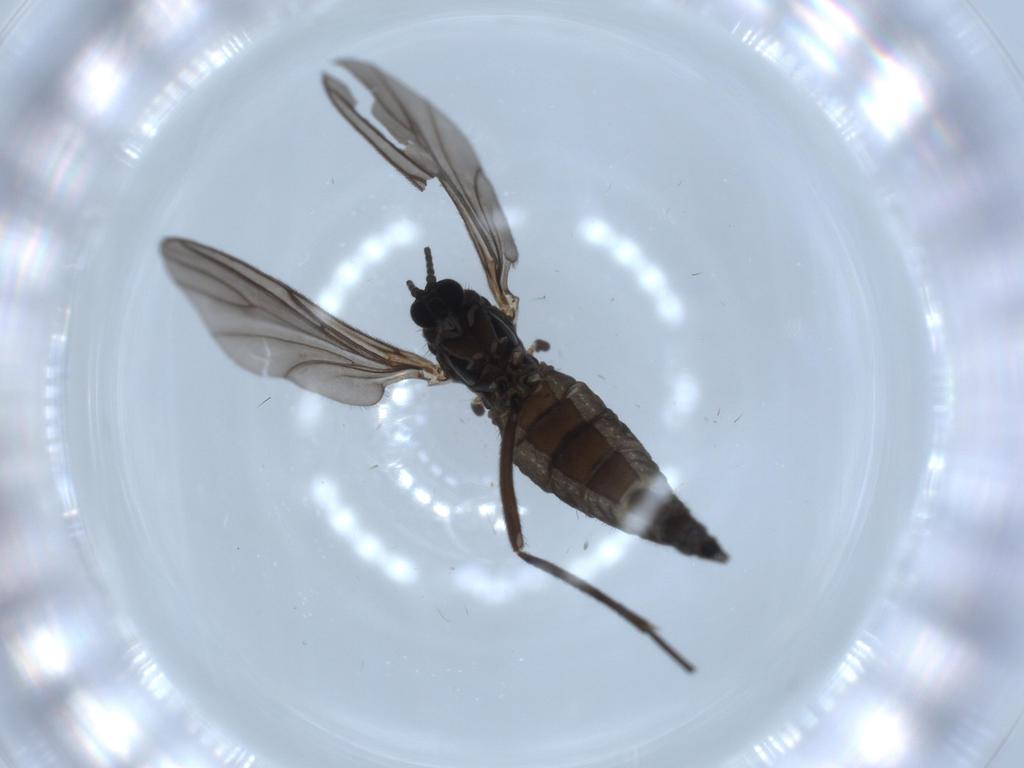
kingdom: Animalia
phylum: Arthropoda
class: Insecta
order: Diptera
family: Sciaridae
